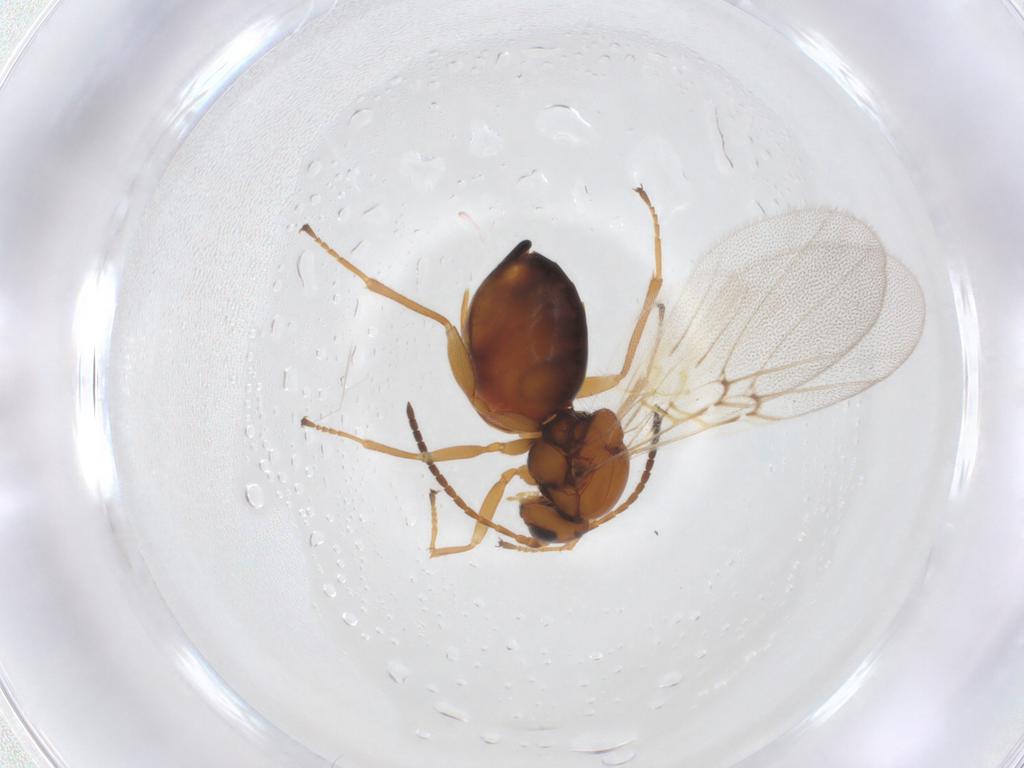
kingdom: Animalia
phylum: Arthropoda
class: Insecta
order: Hymenoptera
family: Cynipidae
